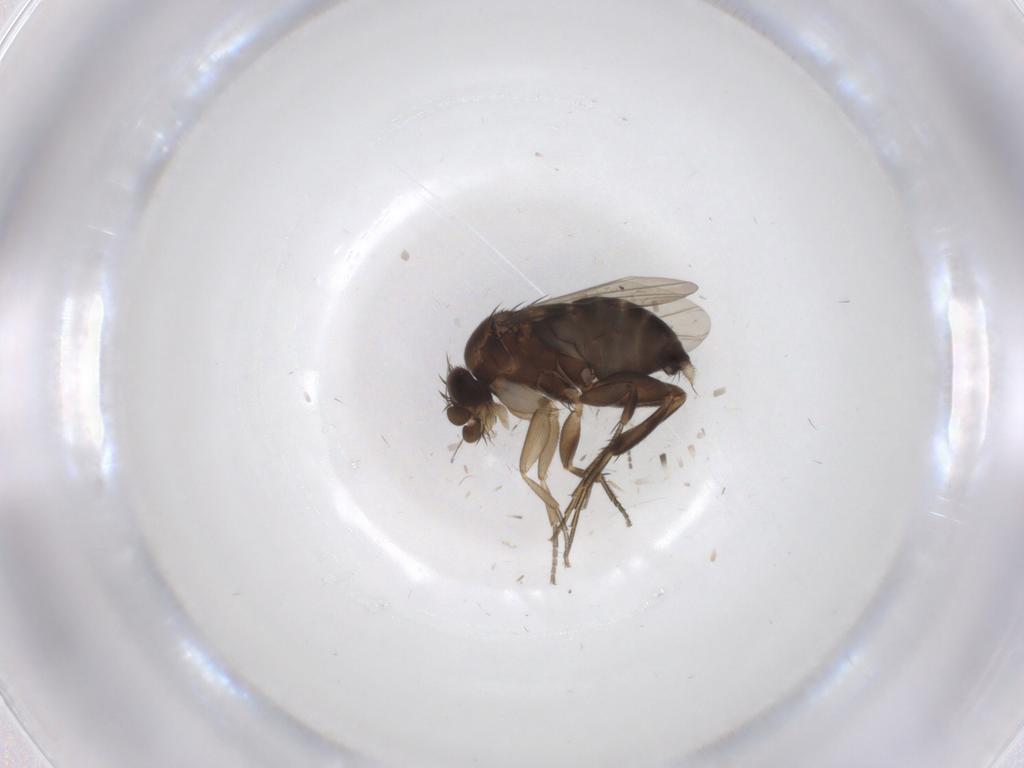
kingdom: Animalia
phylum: Arthropoda
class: Insecta
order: Diptera
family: Phoridae
